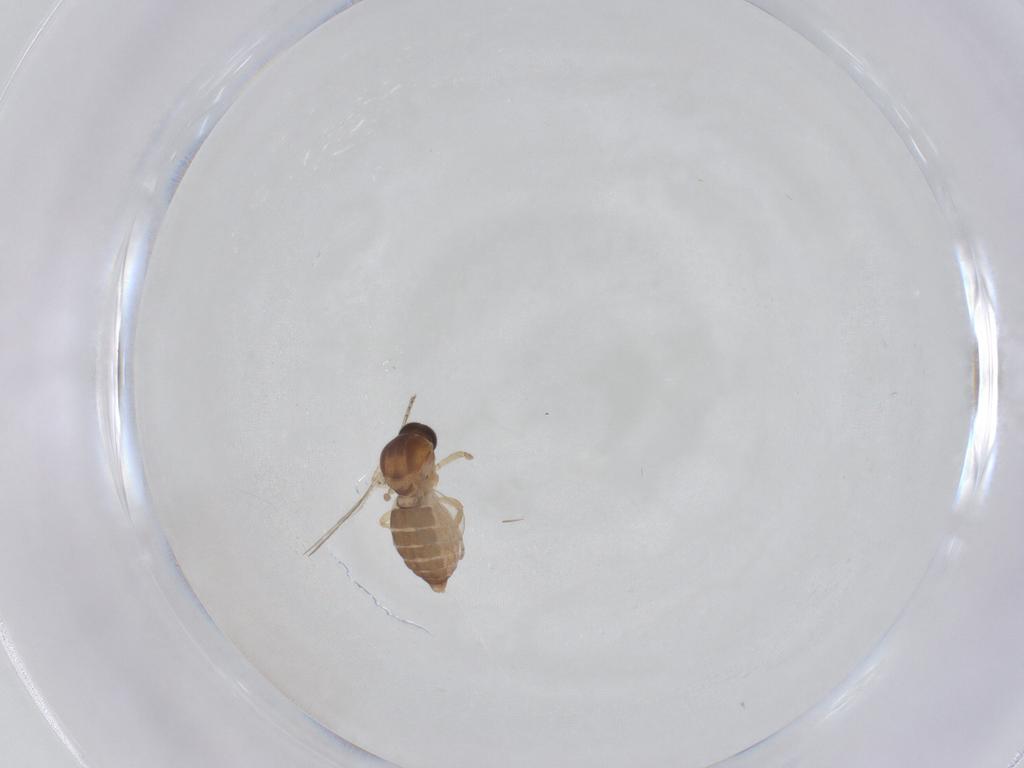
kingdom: Animalia
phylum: Arthropoda
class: Insecta
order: Diptera
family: Ceratopogonidae
